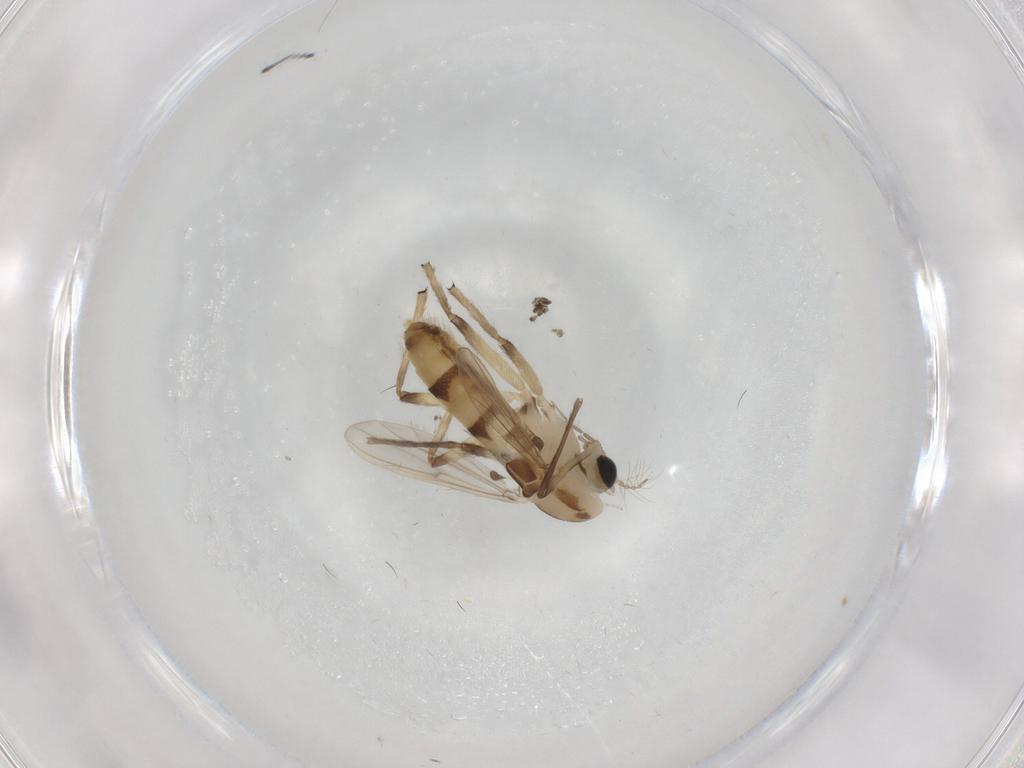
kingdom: Animalia
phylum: Arthropoda
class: Insecta
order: Diptera
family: Chironomidae
